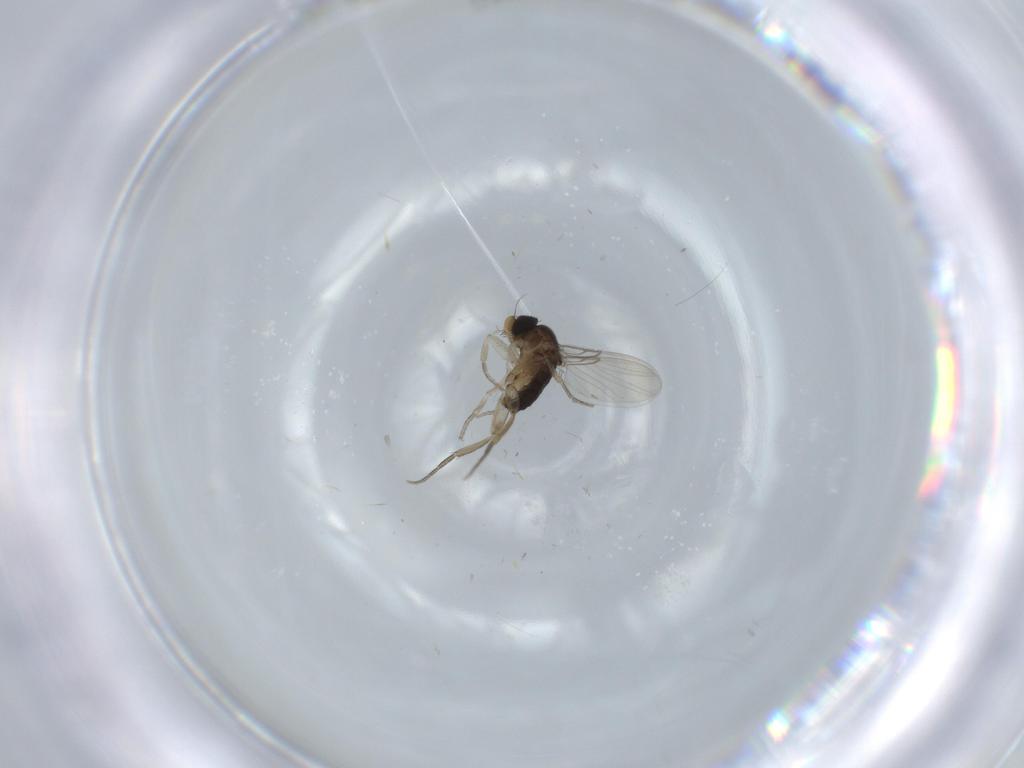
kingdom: Animalia
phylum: Arthropoda
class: Insecta
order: Diptera
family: Phoridae
